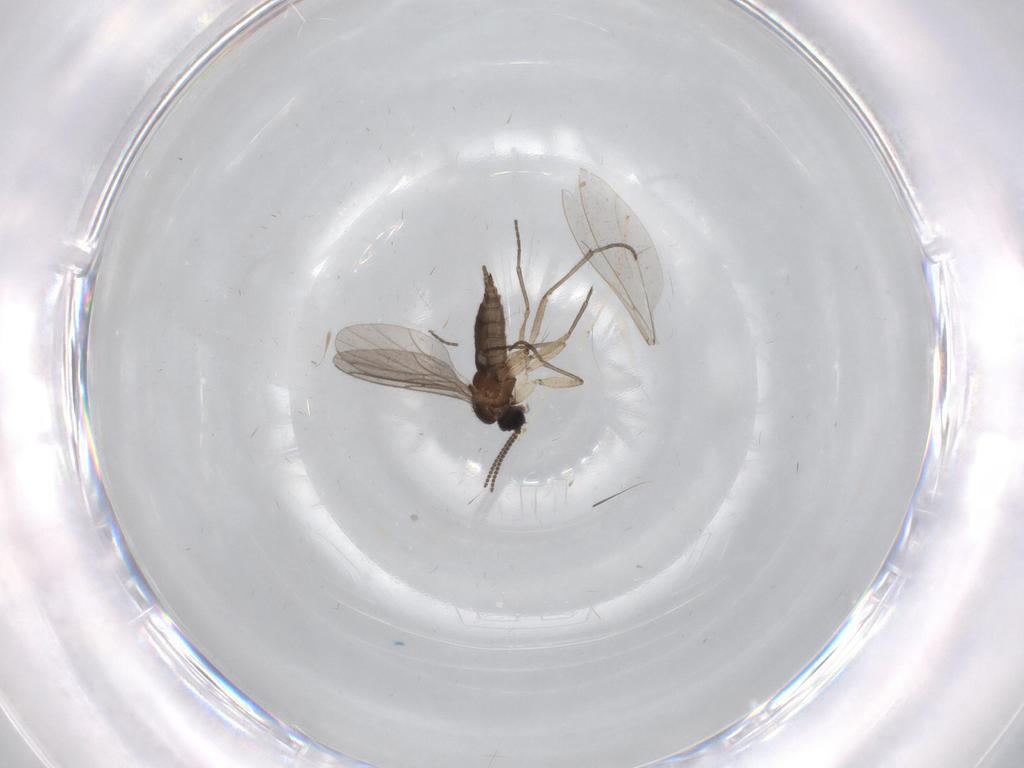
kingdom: Animalia
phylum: Arthropoda
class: Insecta
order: Diptera
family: Sciaridae
